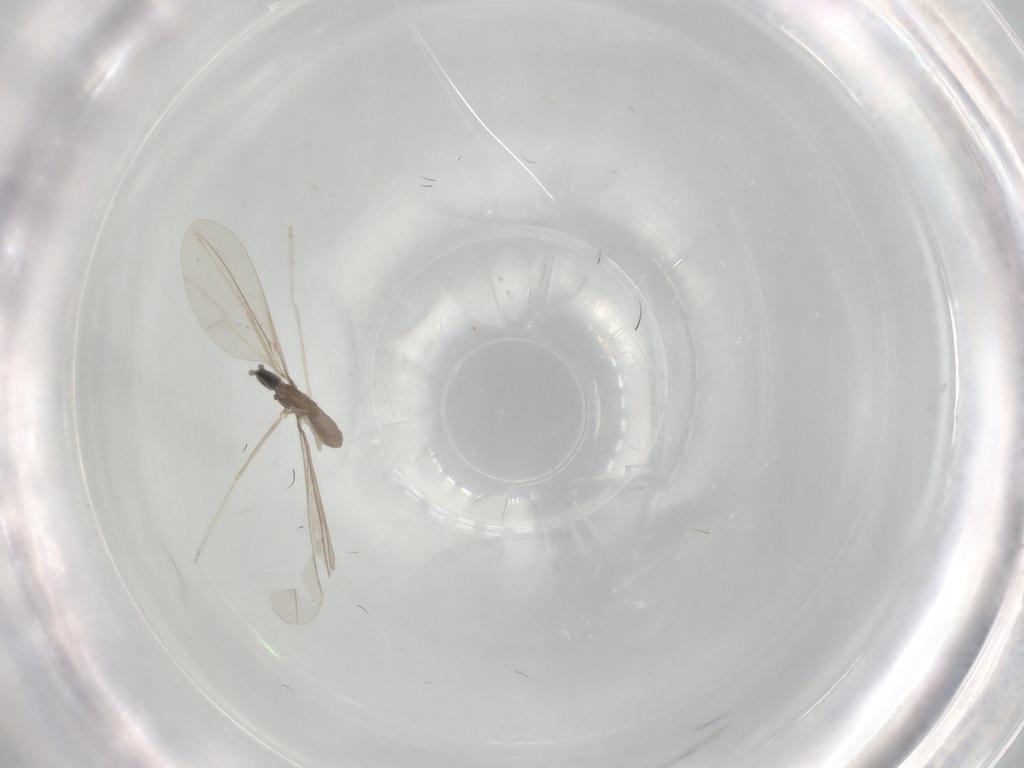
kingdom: Animalia
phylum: Arthropoda
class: Insecta
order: Diptera
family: Cecidomyiidae
